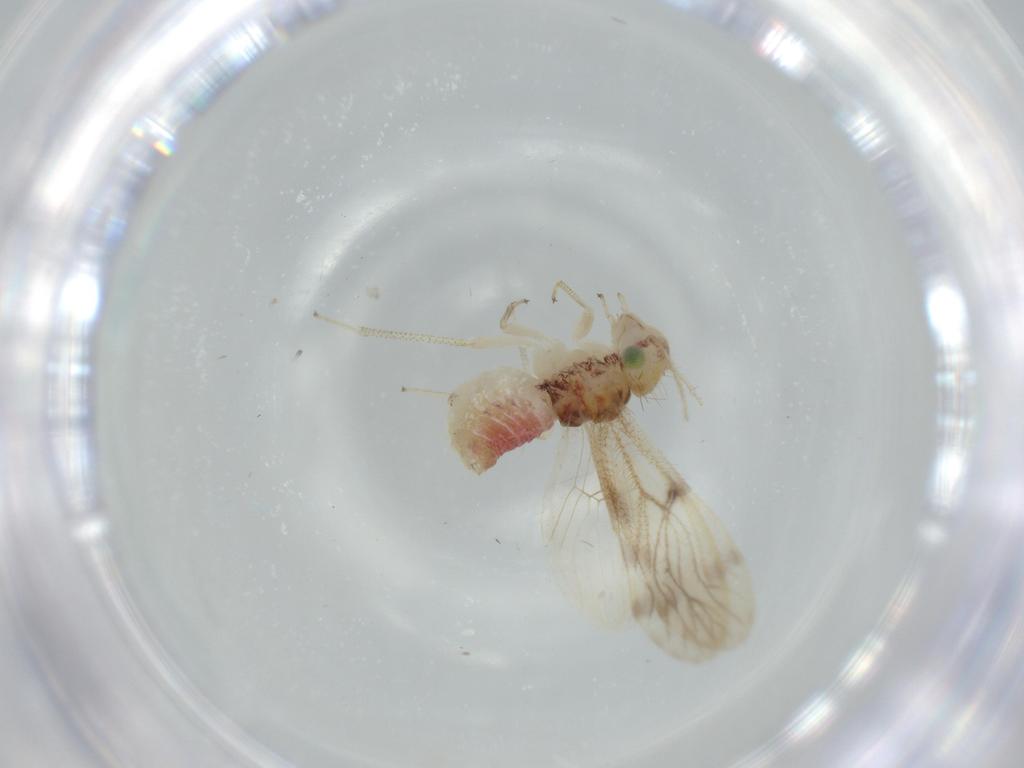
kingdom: Animalia
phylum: Arthropoda
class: Insecta
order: Psocodea
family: Pseudocaeciliidae
